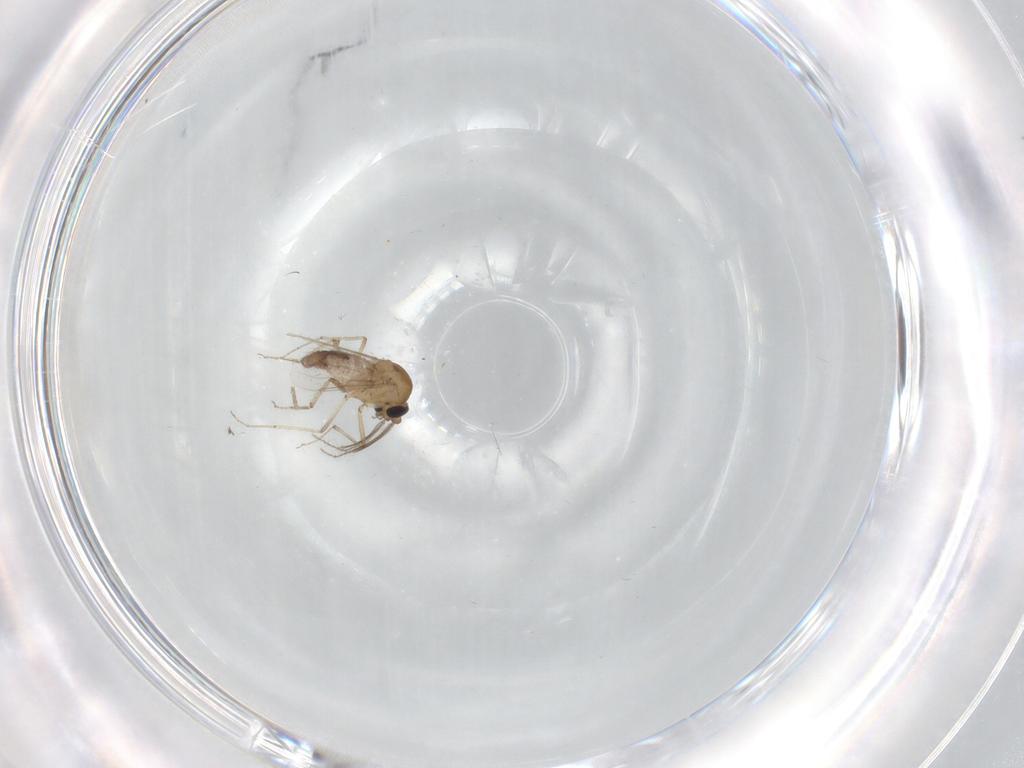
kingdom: Animalia
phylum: Arthropoda
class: Insecta
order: Diptera
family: Ceratopogonidae
